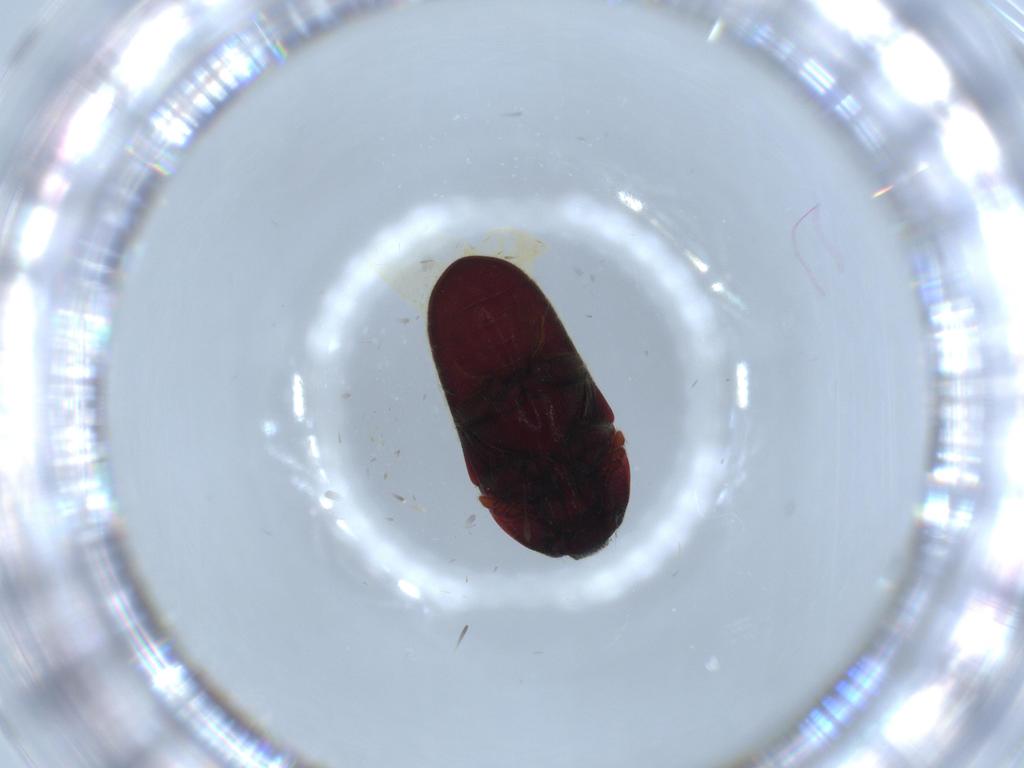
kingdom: Animalia
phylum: Arthropoda
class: Insecta
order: Coleoptera
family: Throscidae
